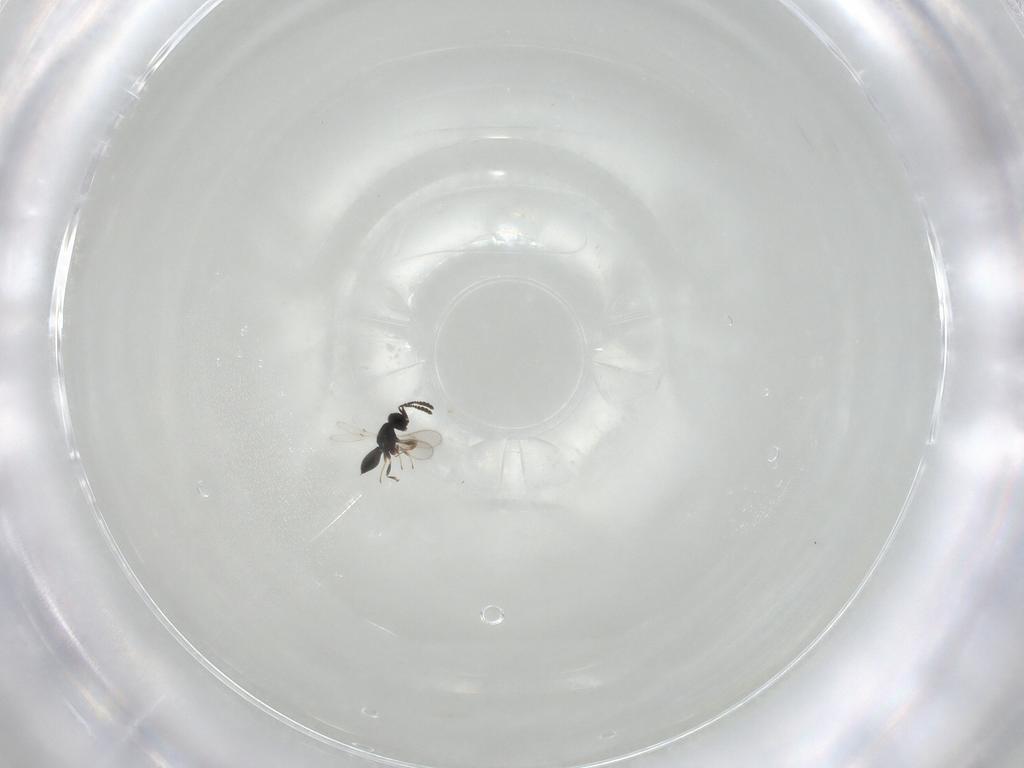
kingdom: Animalia
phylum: Arthropoda
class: Insecta
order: Hymenoptera
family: Scelionidae
